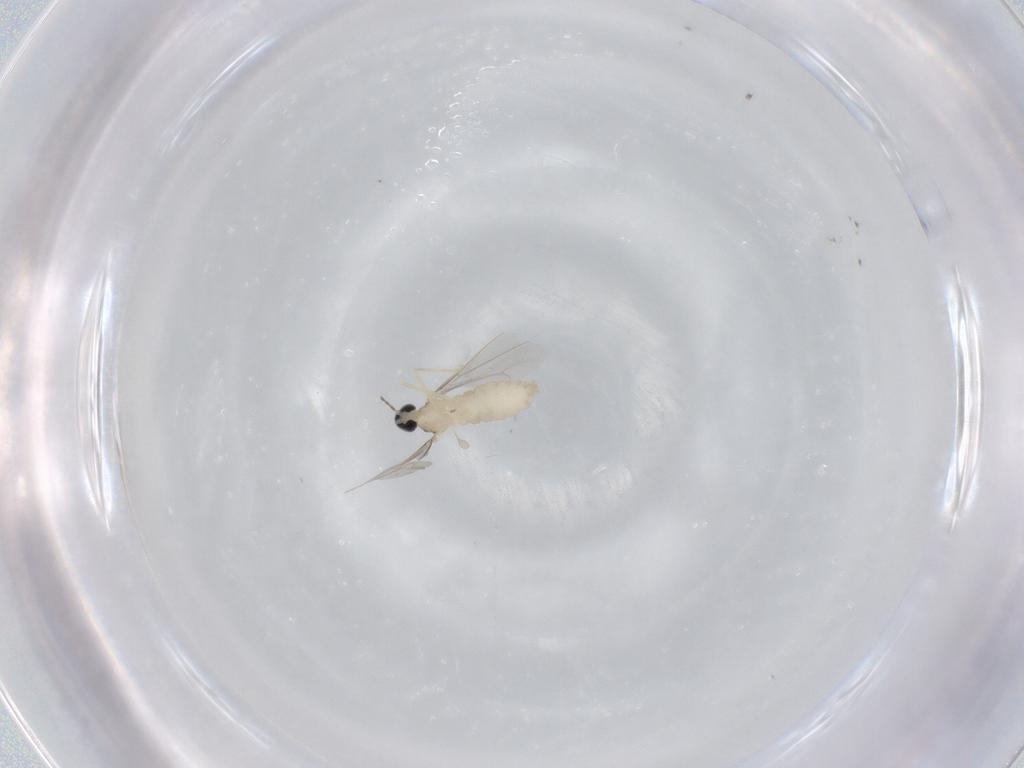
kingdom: Animalia
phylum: Arthropoda
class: Insecta
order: Diptera
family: Cecidomyiidae
